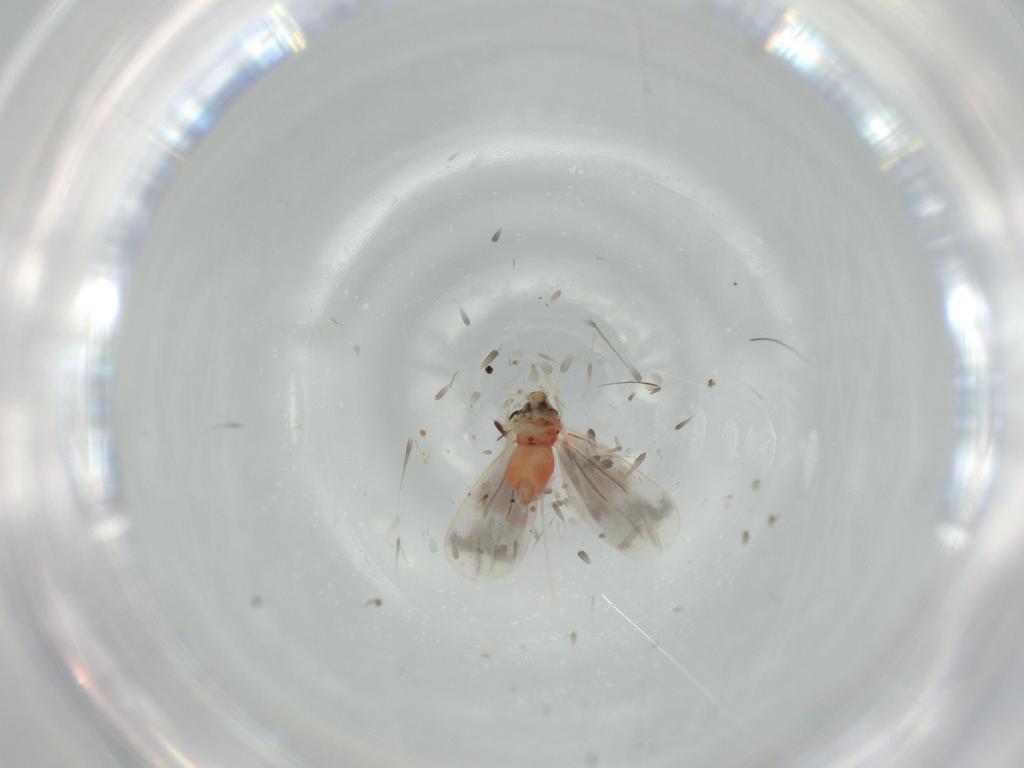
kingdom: Animalia
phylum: Arthropoda
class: Insecta
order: Hemiptera
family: Aleyrodidae
